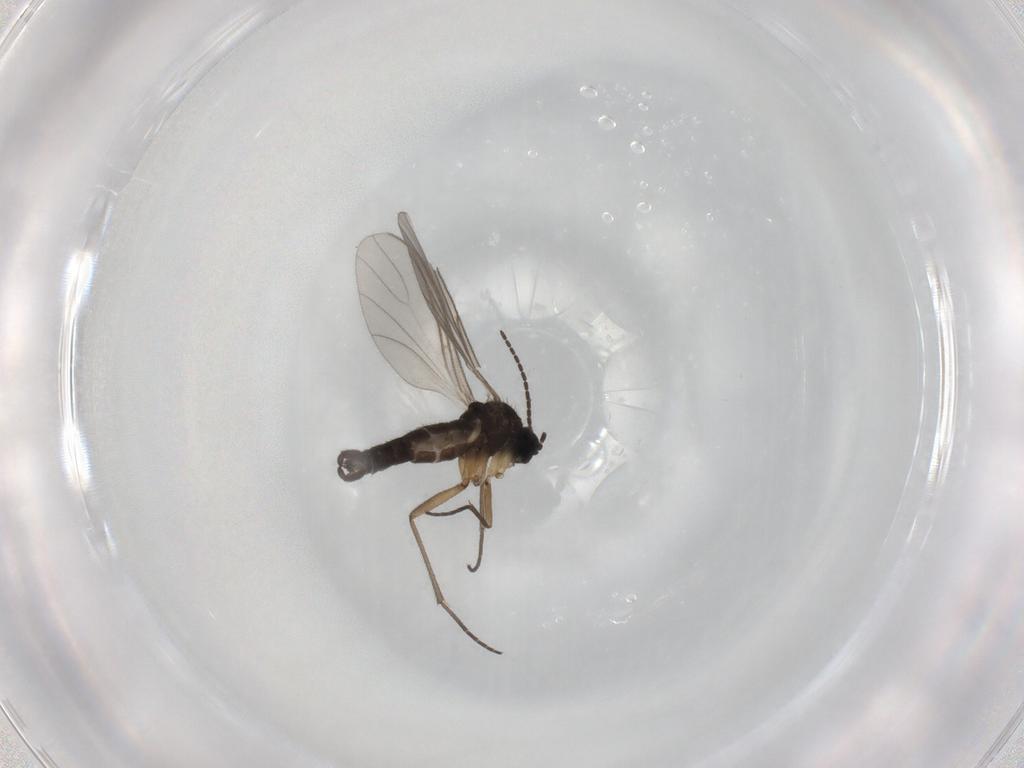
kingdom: Animalia
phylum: Arthropoda
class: Insecta
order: Diptera
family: Sciaridae
